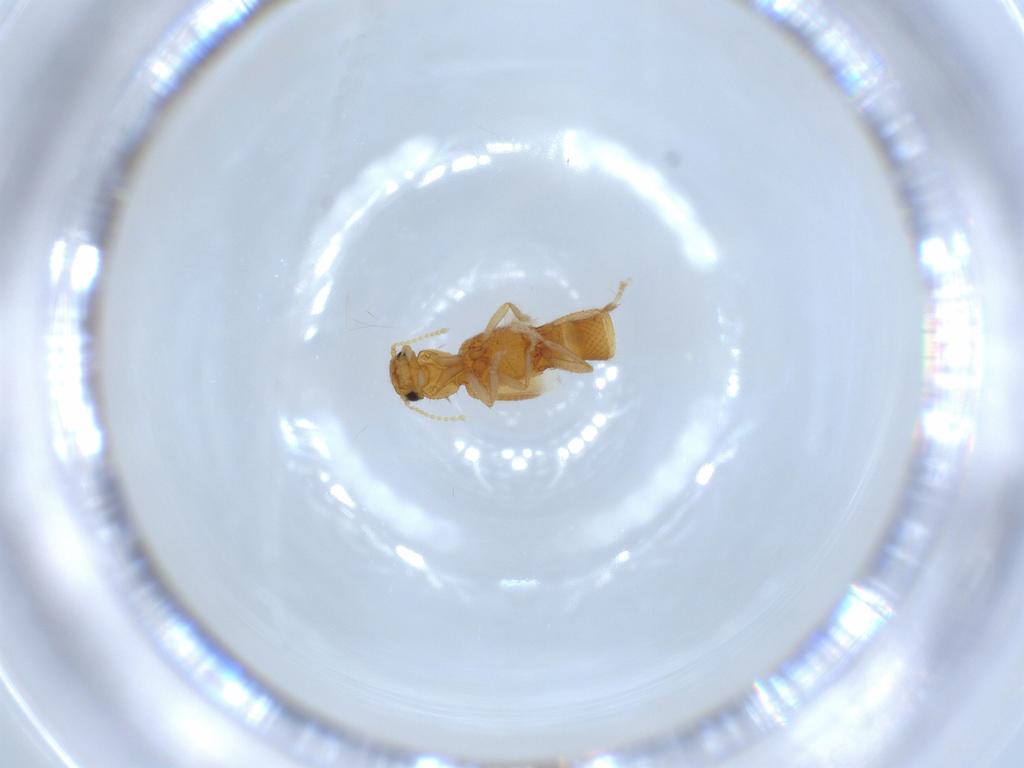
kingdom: Animalia
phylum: Arthropoda
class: Insecta
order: Coleoptera
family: Staphylinidae
